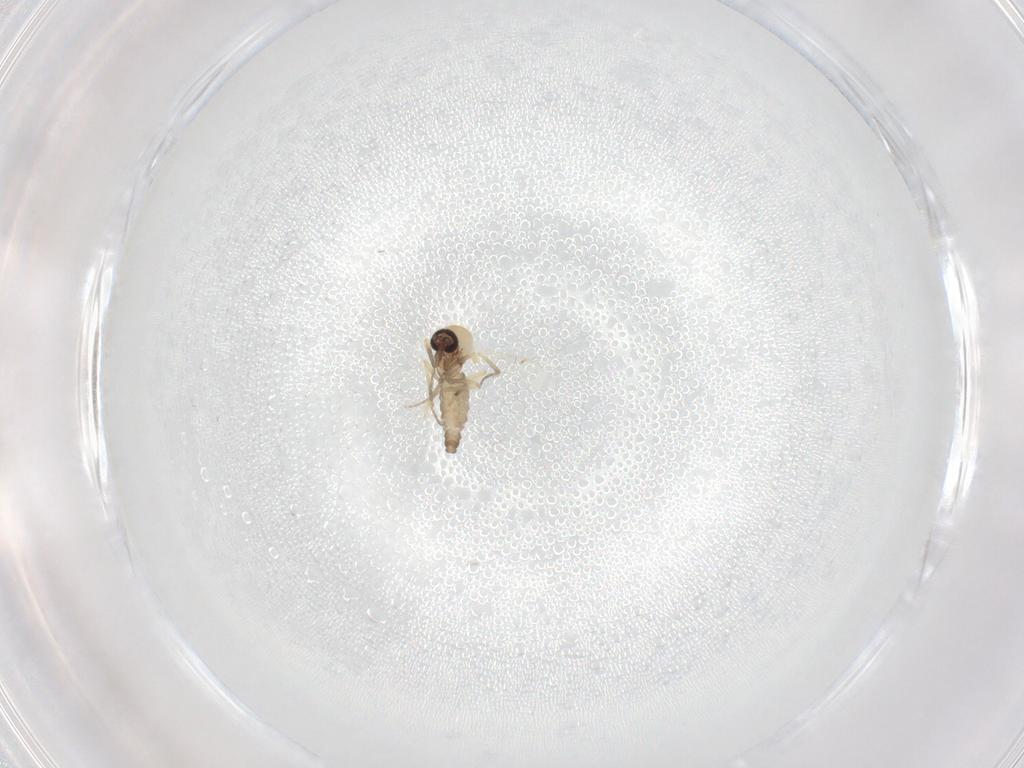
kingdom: Animalia
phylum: Arthropoda
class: Insecta
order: Diptera
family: Ceratopogonidae
